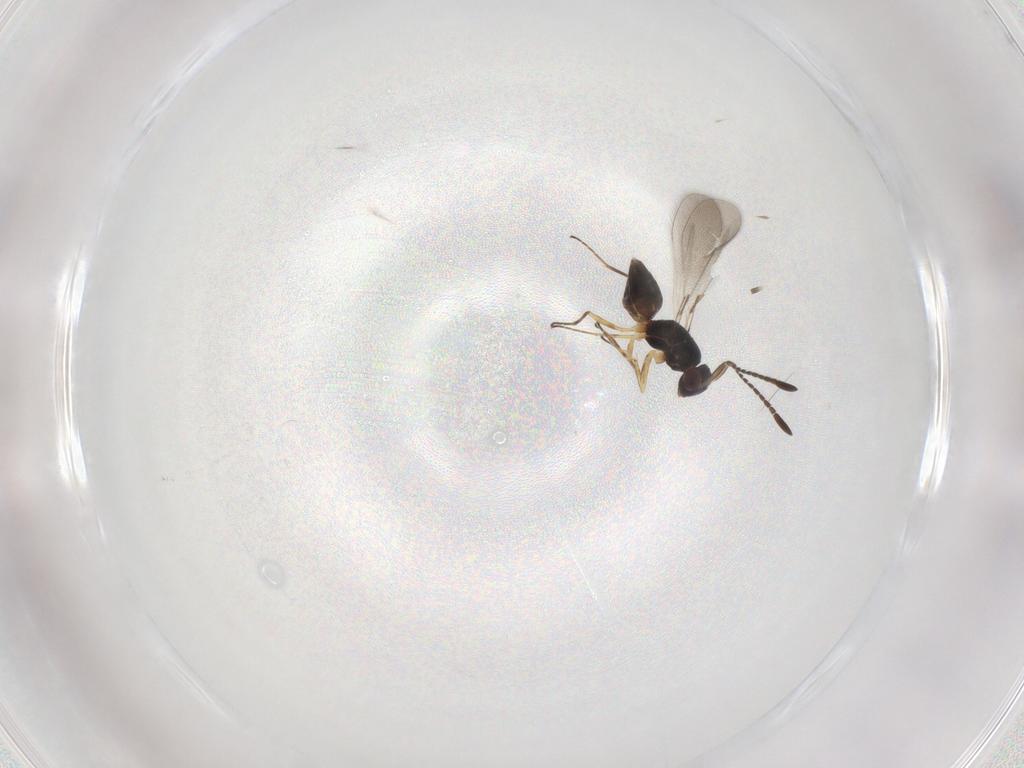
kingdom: Animalia
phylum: Arthropoda
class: Insecta
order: Hymenoptera
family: Mymaridae
